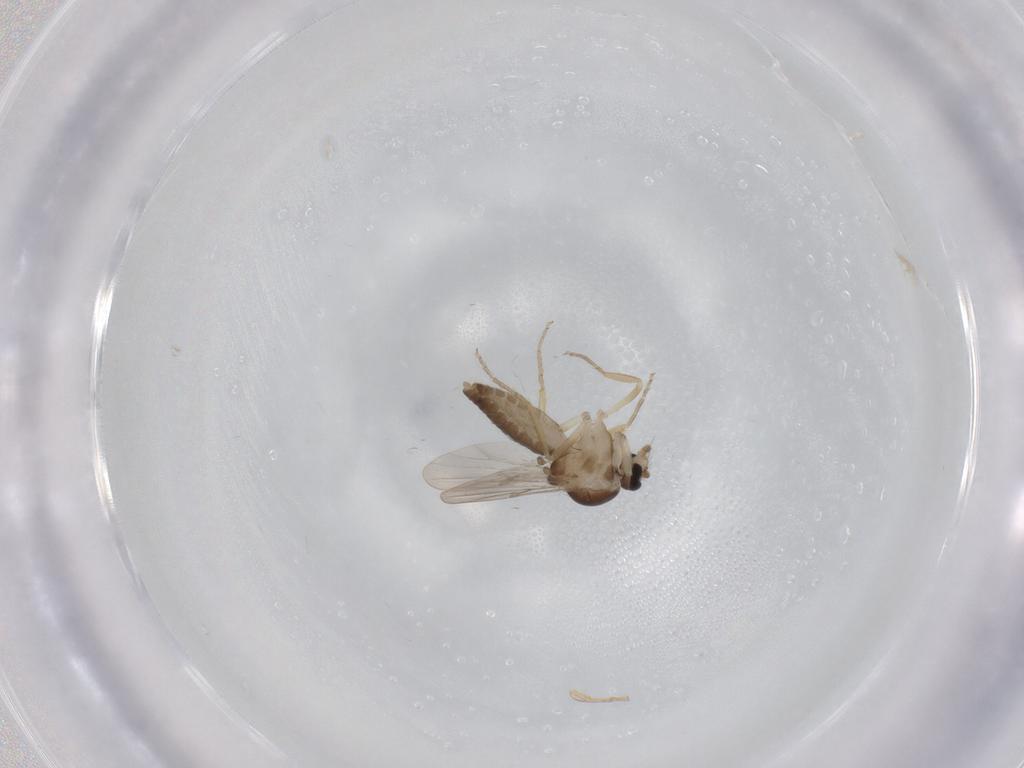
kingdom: Animalia
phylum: Arthropoda
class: Insecta
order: Diptera
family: Ceratopogonidae
